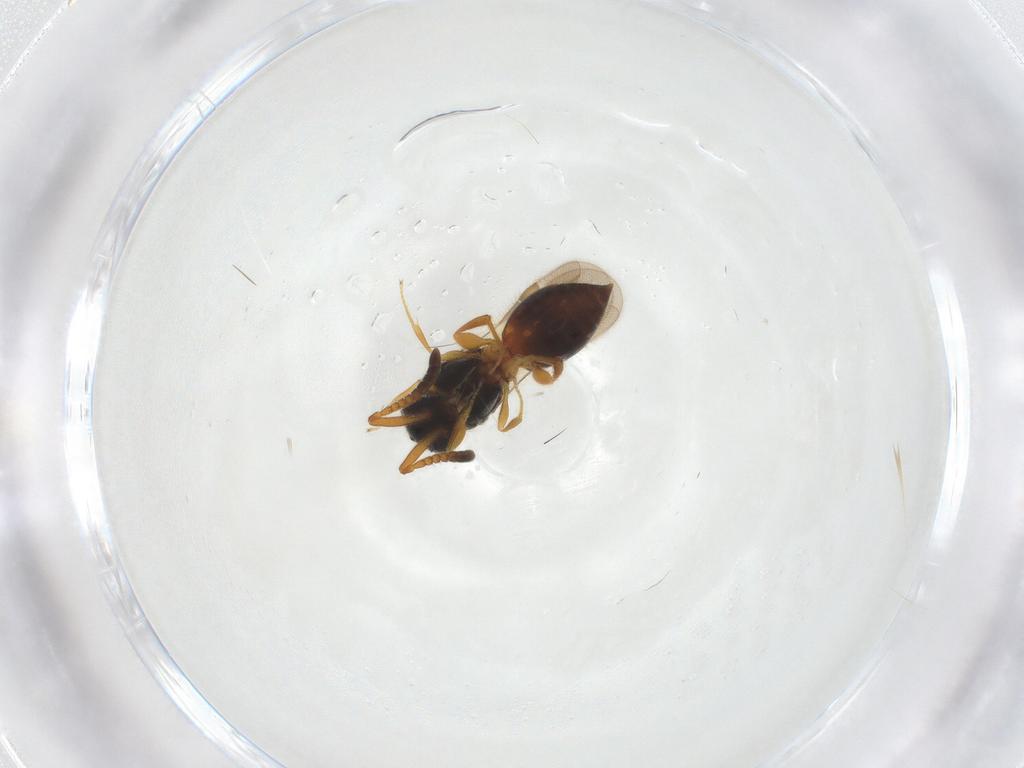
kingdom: Animalia
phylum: Arthropoda
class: Insecta
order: Hymenoptera
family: Megaspilidae
